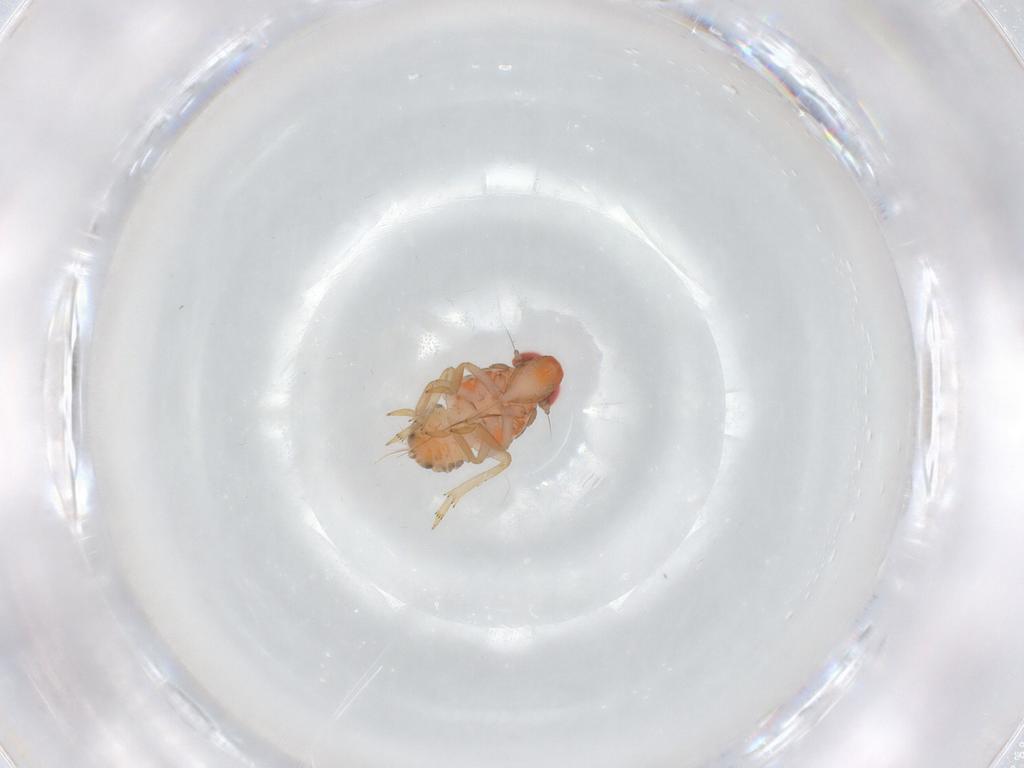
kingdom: Animalia
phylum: Arthropoda
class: Insecta
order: Hemiptera
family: Fulgoroidea_incertae_sedis
